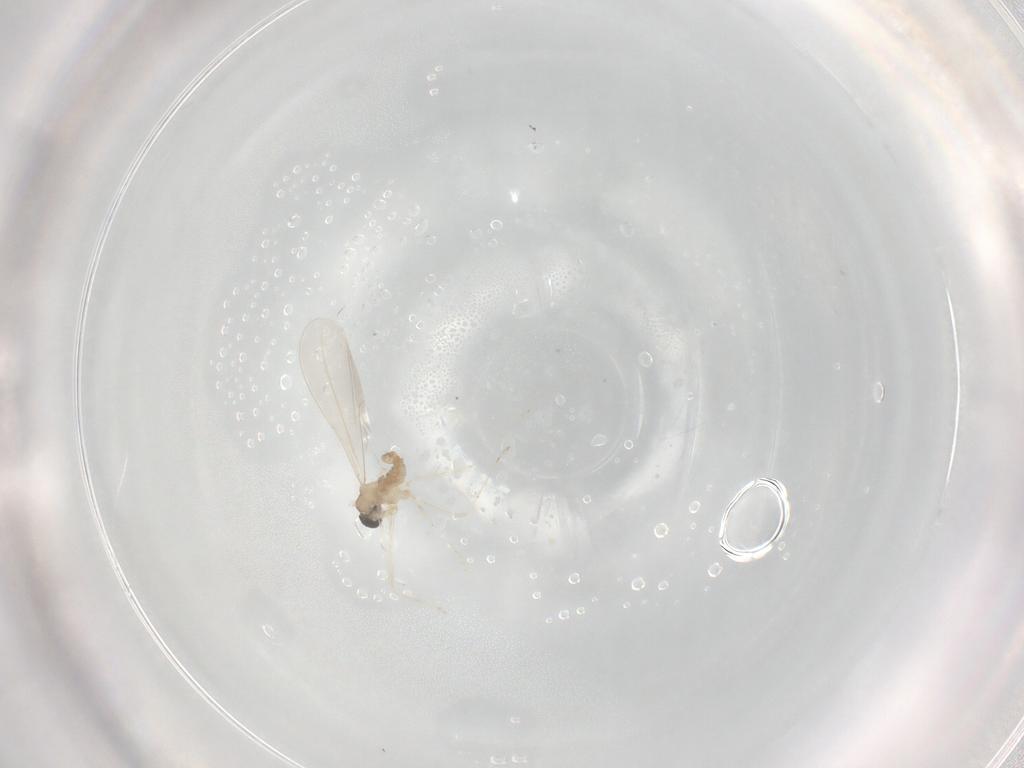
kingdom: Animalia
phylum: Arthropoda
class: Insecta
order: Diptera
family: Cecidomyiidae
